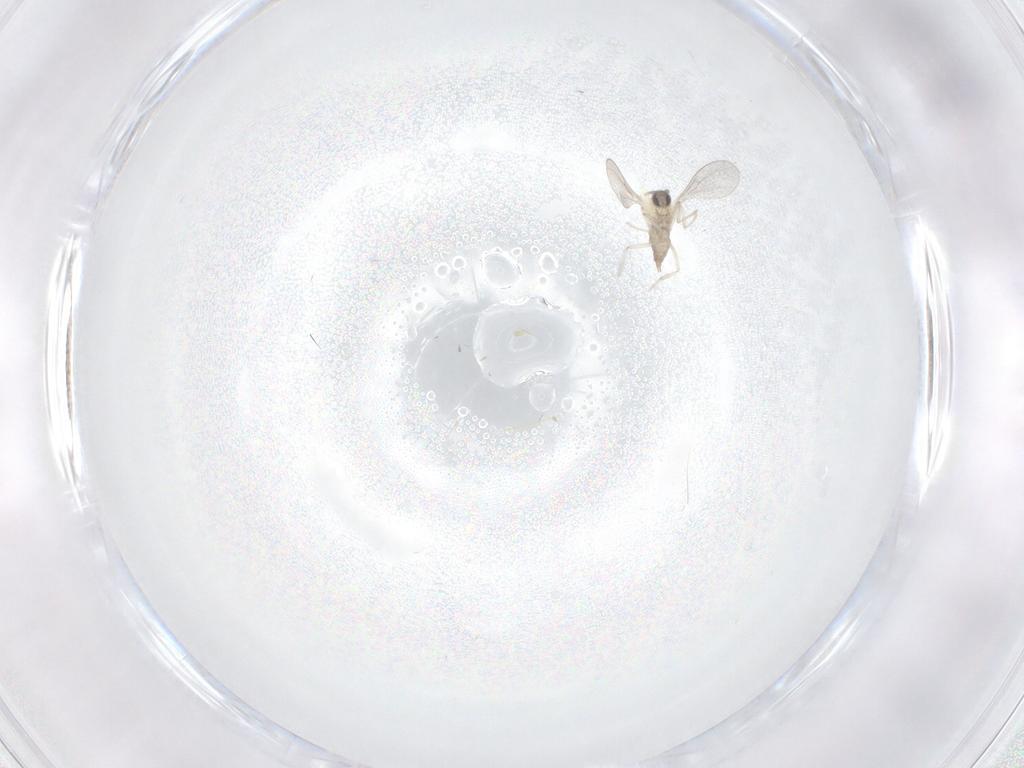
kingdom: Animalia
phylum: Arthropoda
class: Insecta
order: Diptera
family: Cecidomyiidae
